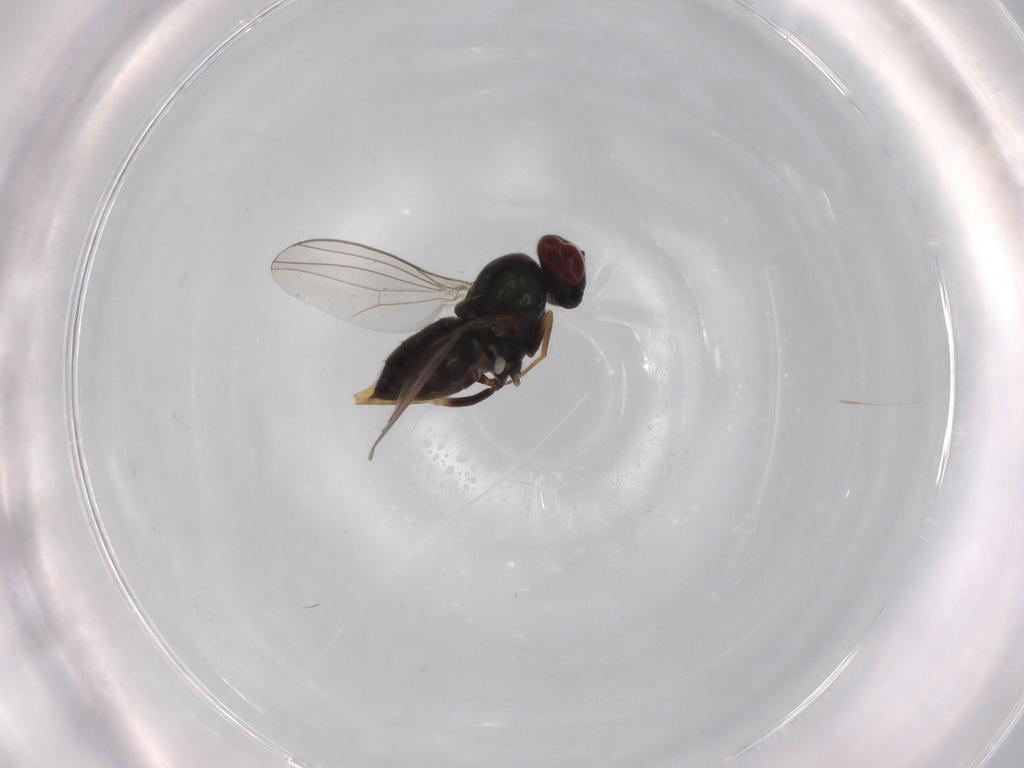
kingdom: Animalia
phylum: Arthropoda
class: Insecta
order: Diptera
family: Dolichopodidae
